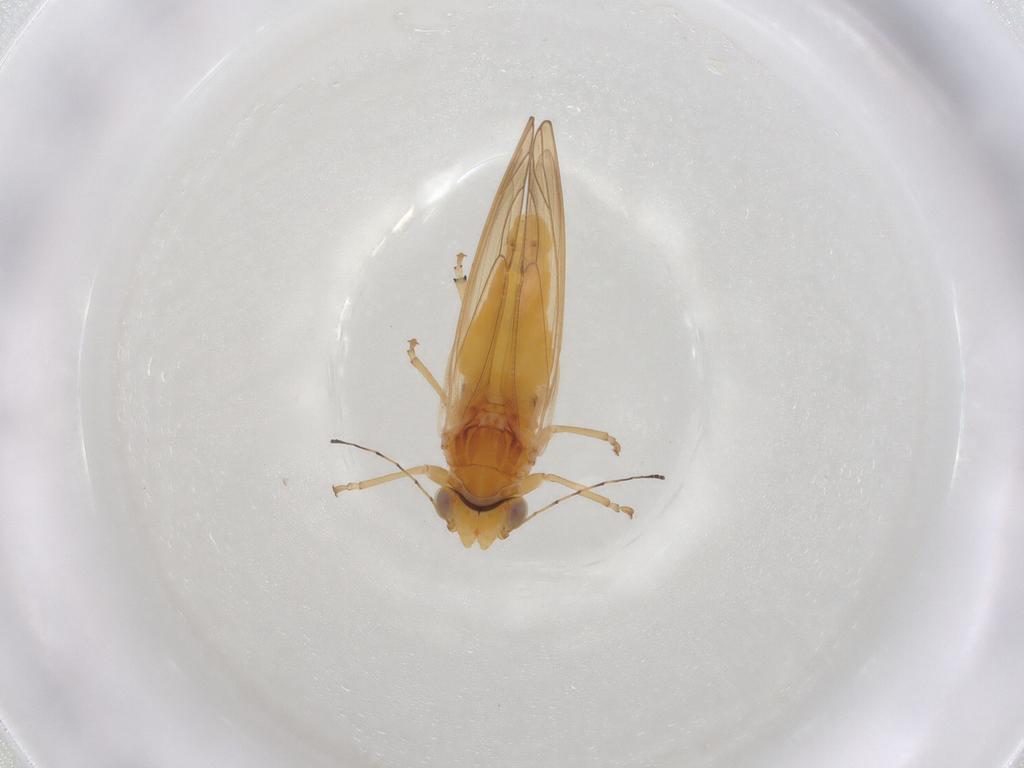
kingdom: Animalia
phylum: Arthropoda
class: Insecta
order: Hemiptera
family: Psylloidea_incertae_sedis
